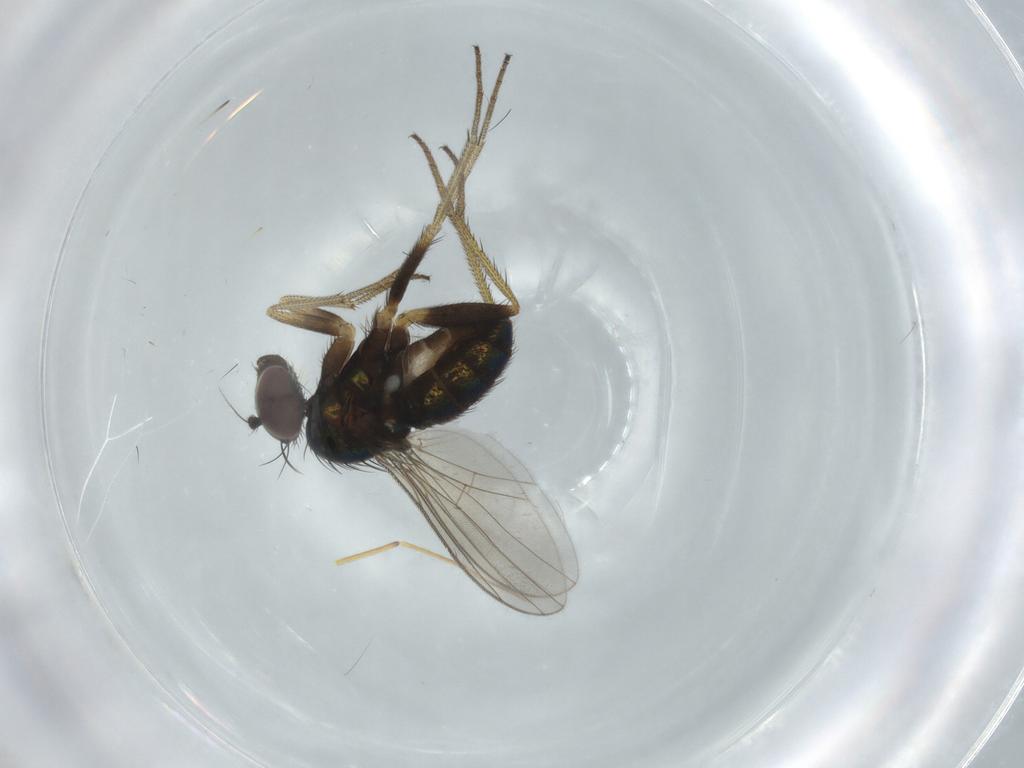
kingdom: Animalia
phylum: Arthropoda
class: Insecta
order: Diptera
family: Dolichopodidae
